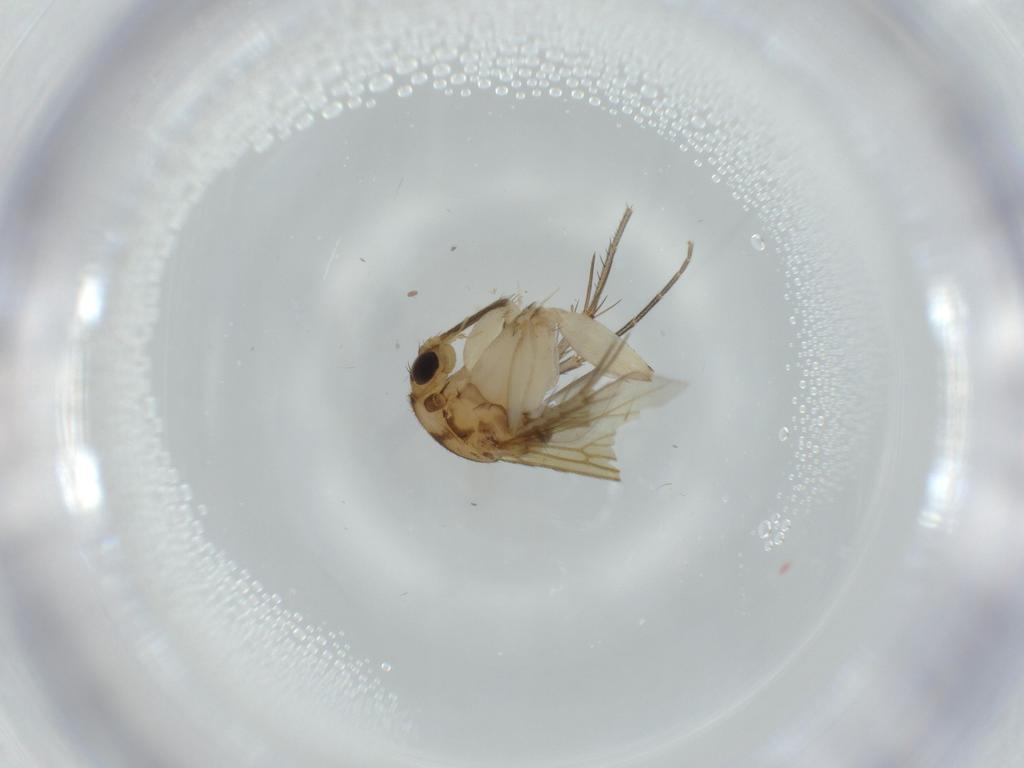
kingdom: Animalia
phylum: Arthropoda
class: Insecta
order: Diptera
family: Mycetophilidae
